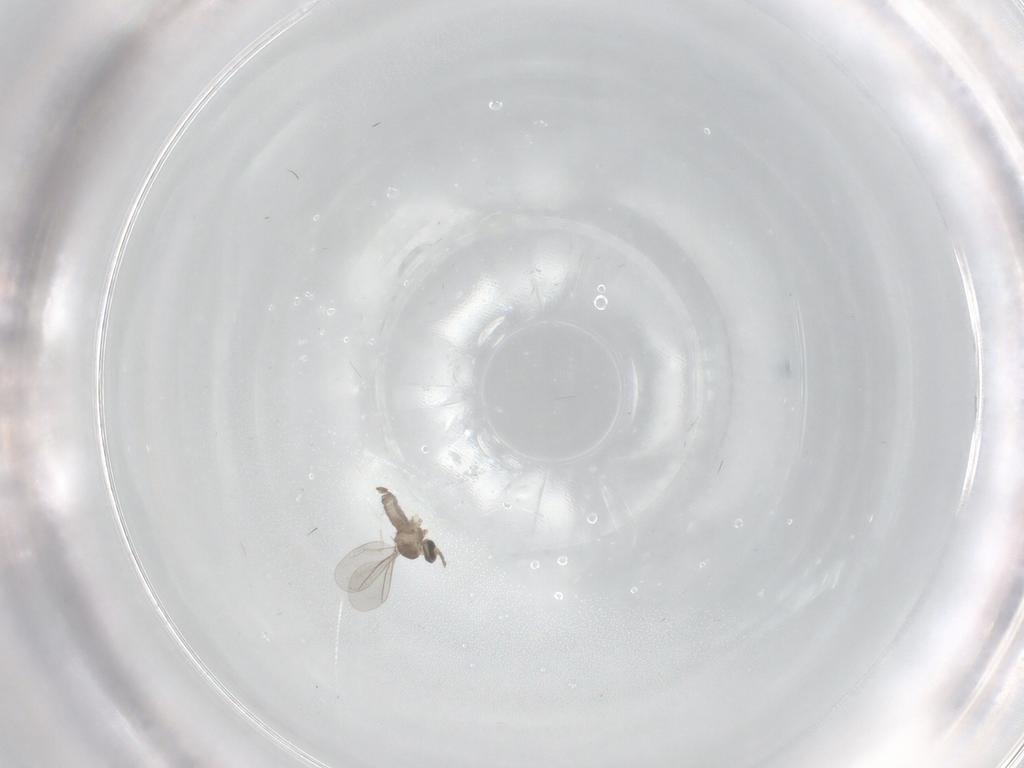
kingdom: Animalia
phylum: Arthropoda
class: Insecta
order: Diptera
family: Cecidomyiidae
